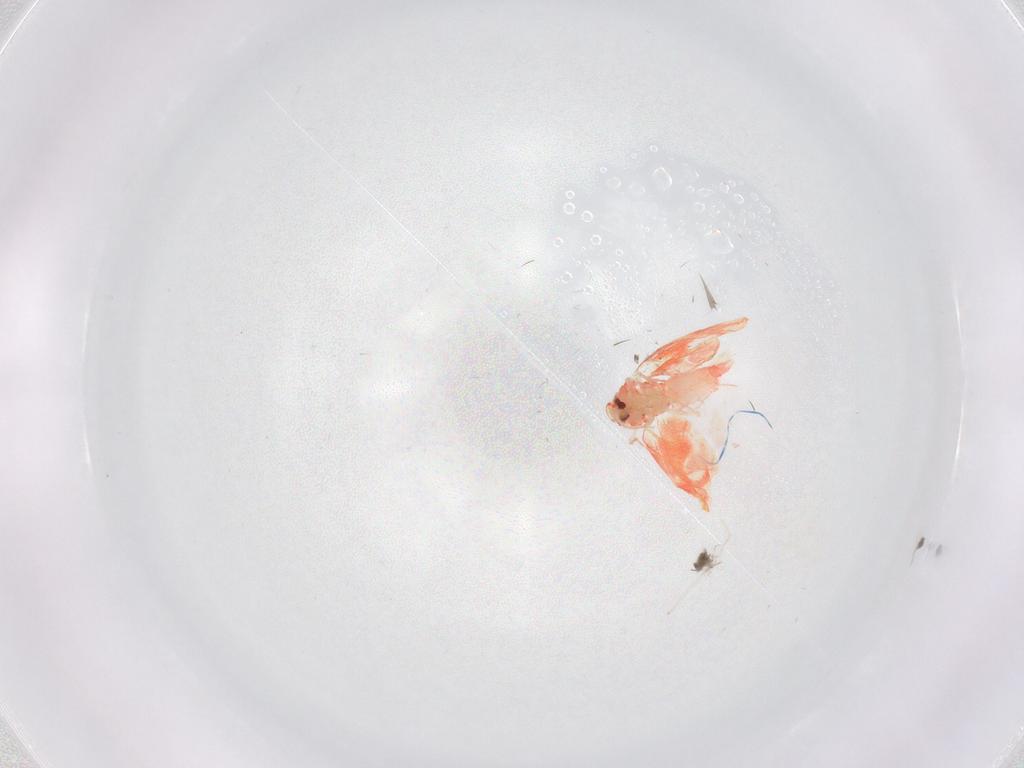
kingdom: Animalia
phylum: Arthropoda
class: Insecta
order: Hemiptera
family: Aleyrodidae
